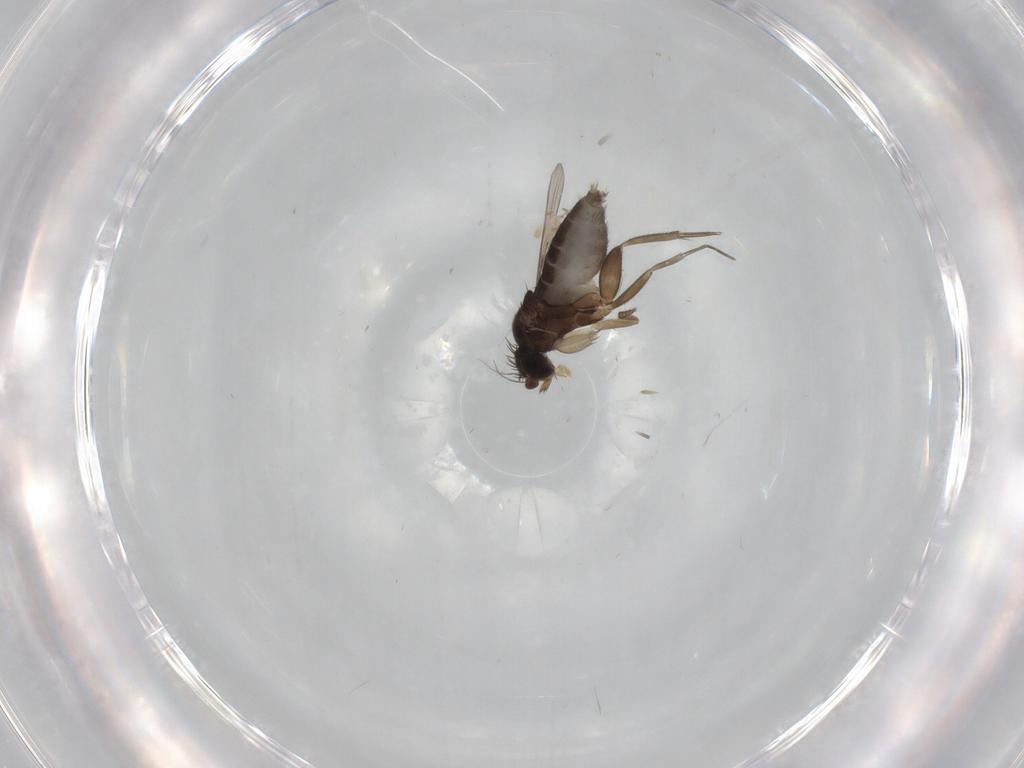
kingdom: Animalia
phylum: Arthropoda
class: Insecta
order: Diptera
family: Phoridae
